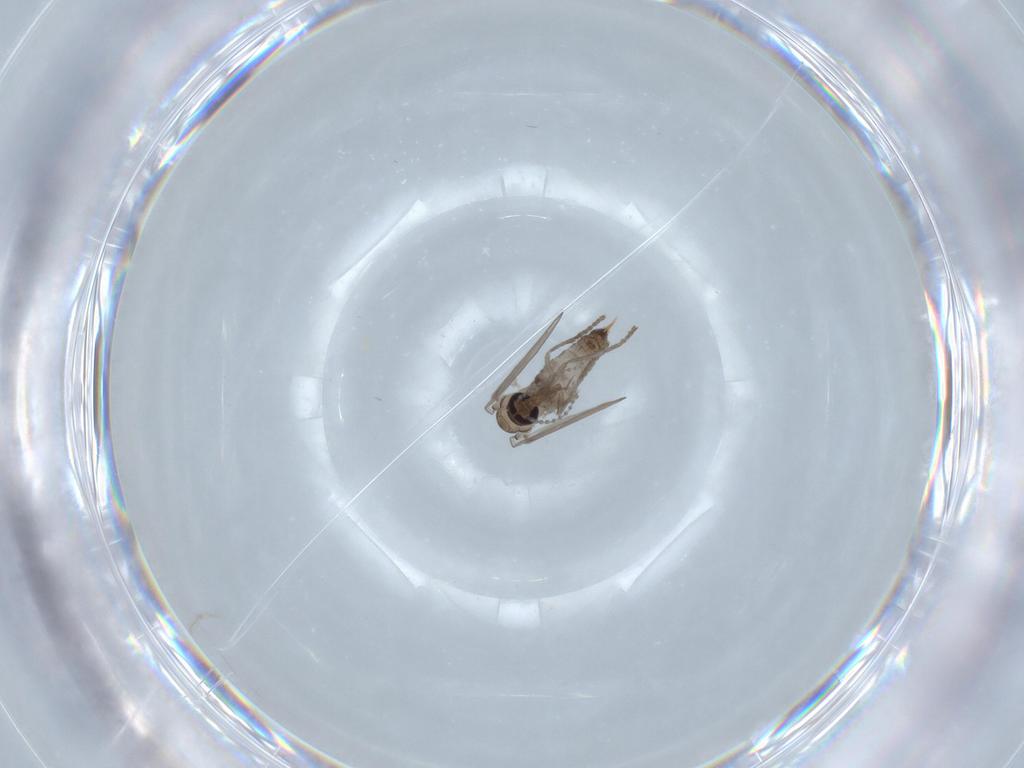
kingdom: Animalia
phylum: Arthropoda
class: Insecta
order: Diptera
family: Psychodidae
